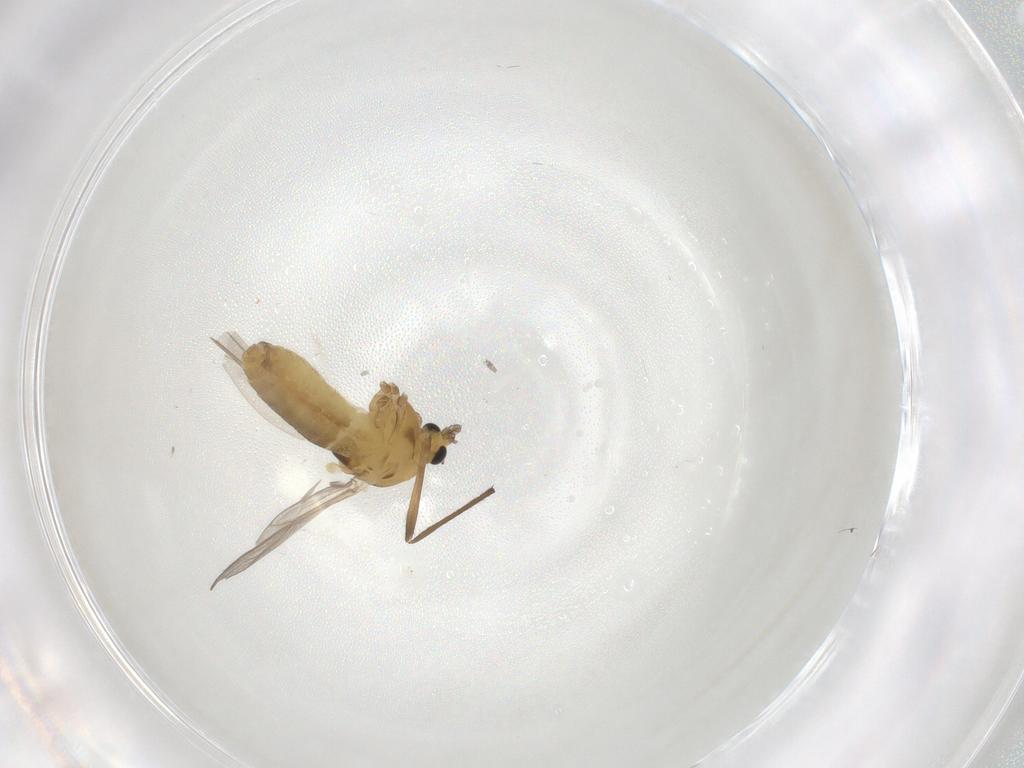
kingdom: Animalia
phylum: Arthropoda
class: Insecta
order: Diptera
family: Chironomidae
